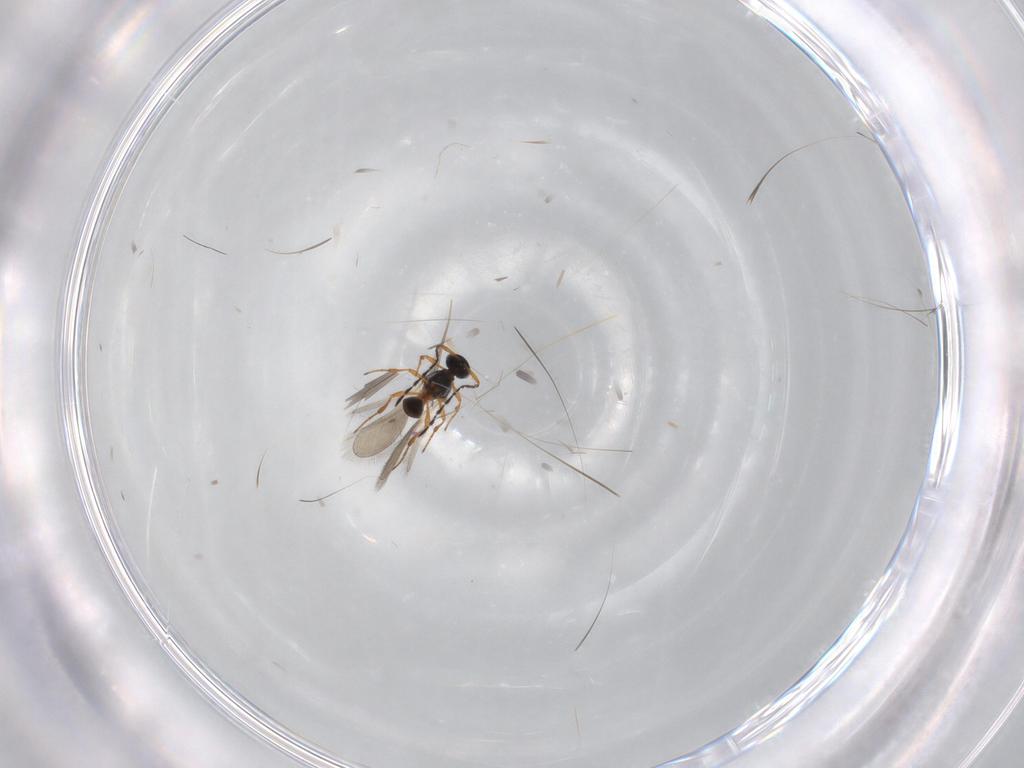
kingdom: Animalia
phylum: Arthropoda
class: Insecta
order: Hymenoptera
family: Platygastridae
